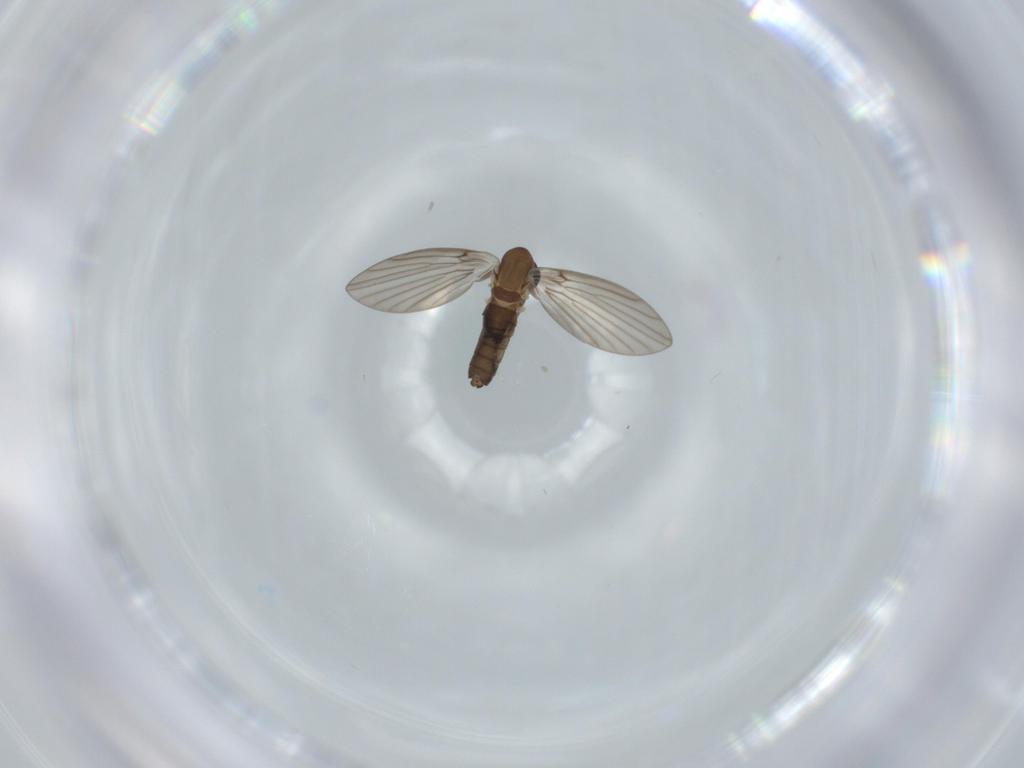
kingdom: Animalia
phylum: Arthropoda
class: Insecta
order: Diptera
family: Psychodidae
